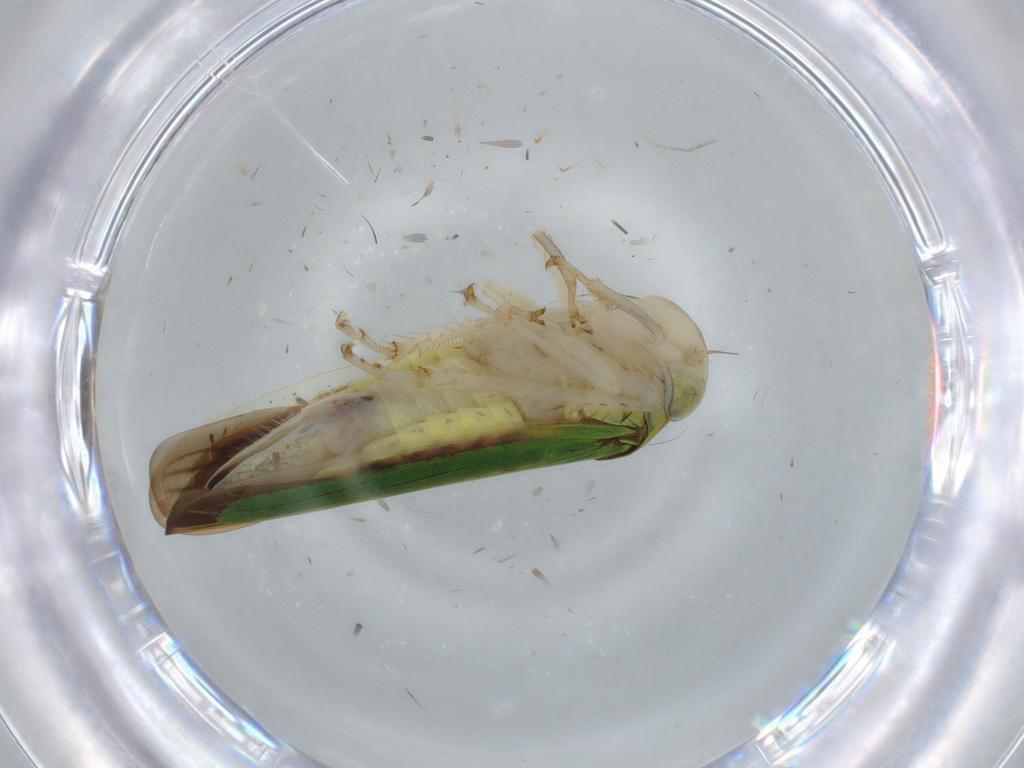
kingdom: Animalia
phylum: Arthropoda
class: Insecta
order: Hemiptera
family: Cicadellidae
